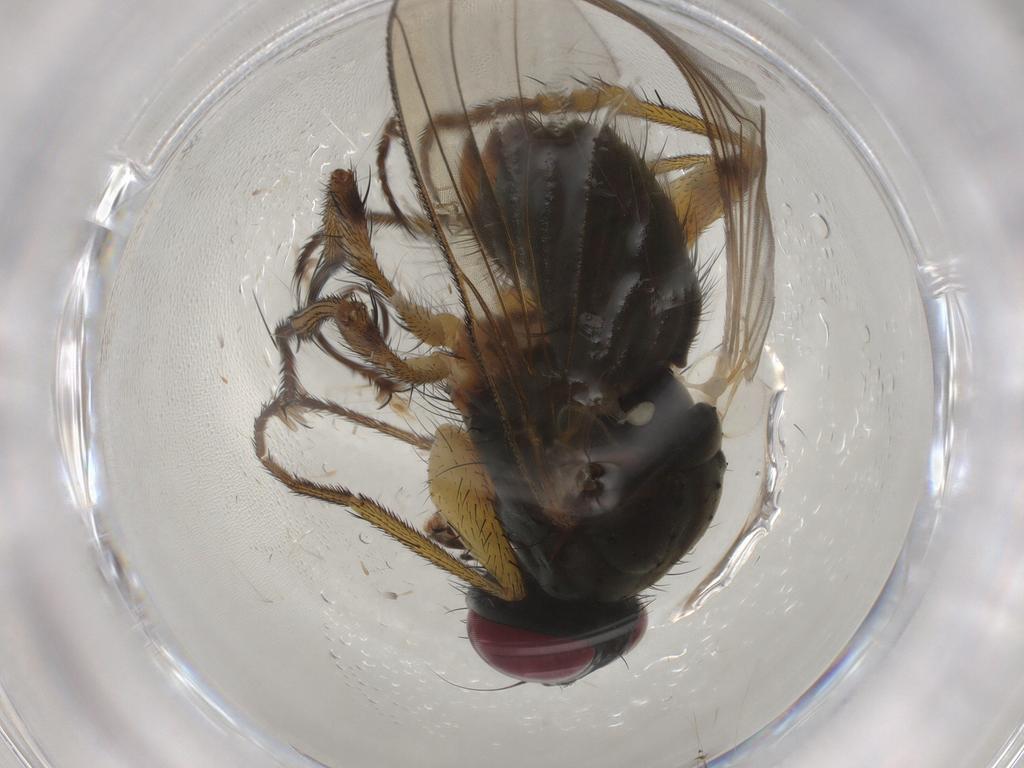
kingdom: Animalia
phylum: Arthropoda
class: Insecta
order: Diptera
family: Muscidae
